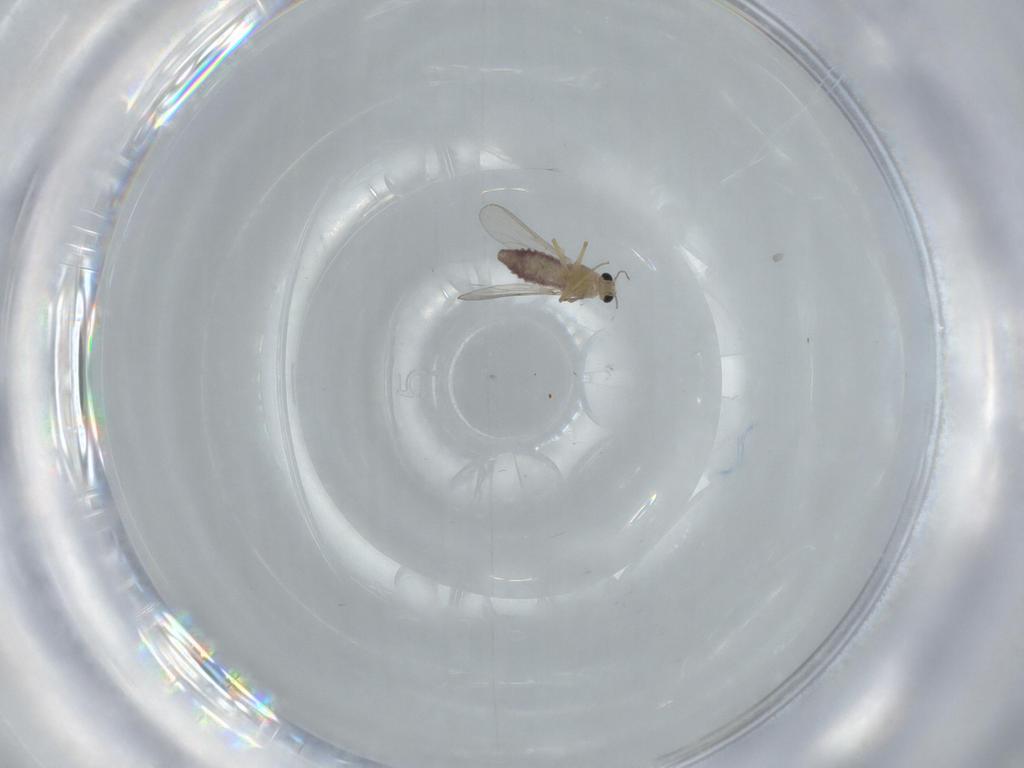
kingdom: Animalia
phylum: Arthropoda
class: Insecta
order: Diptera
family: Chironomidae
